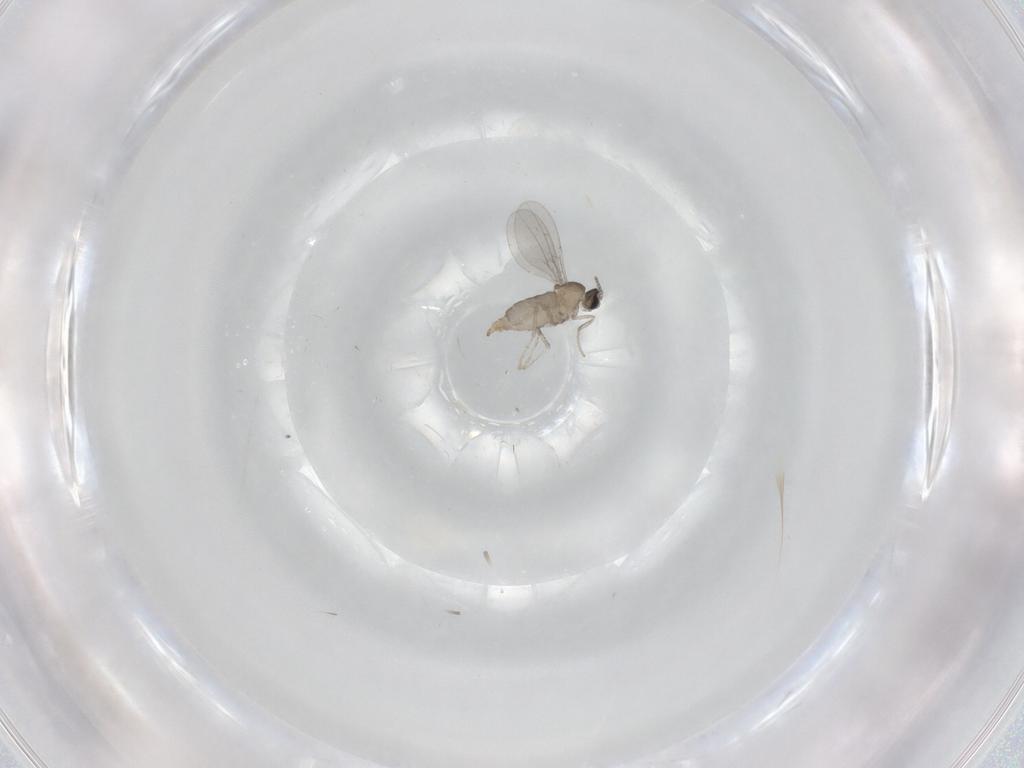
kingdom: Animalia
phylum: Arthropoda
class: Insecta
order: Diptera
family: Cecidomyiidae
